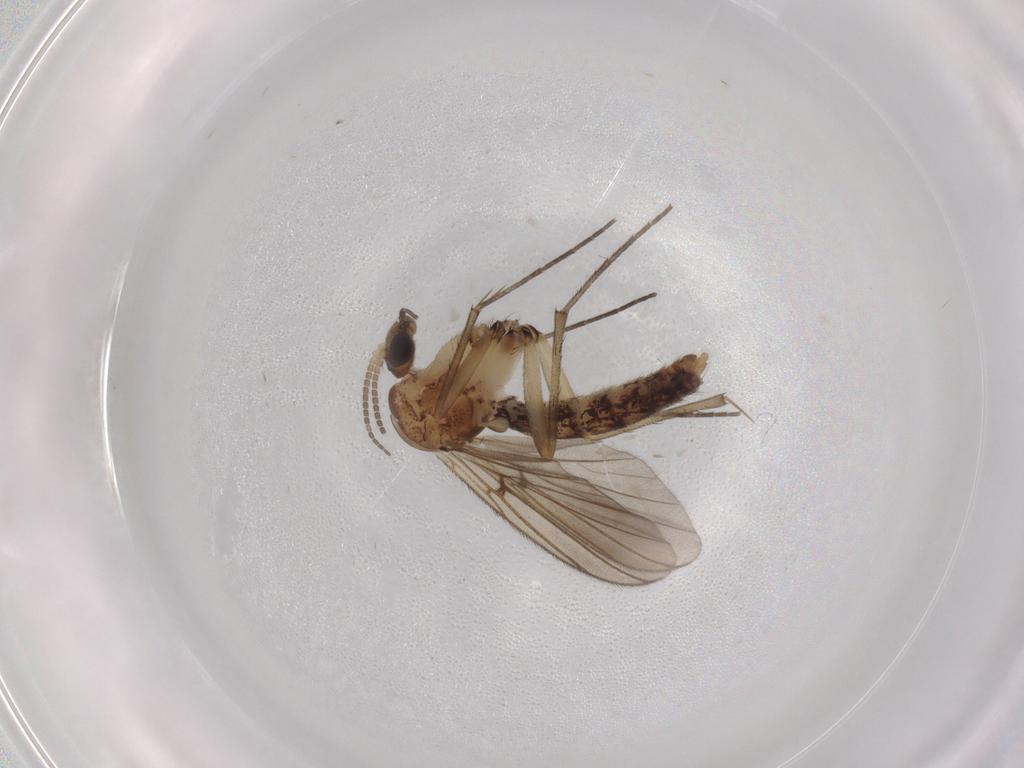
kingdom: Animalia
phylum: Arthropoda
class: Insecta
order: Diptera
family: Mycetophilidae
